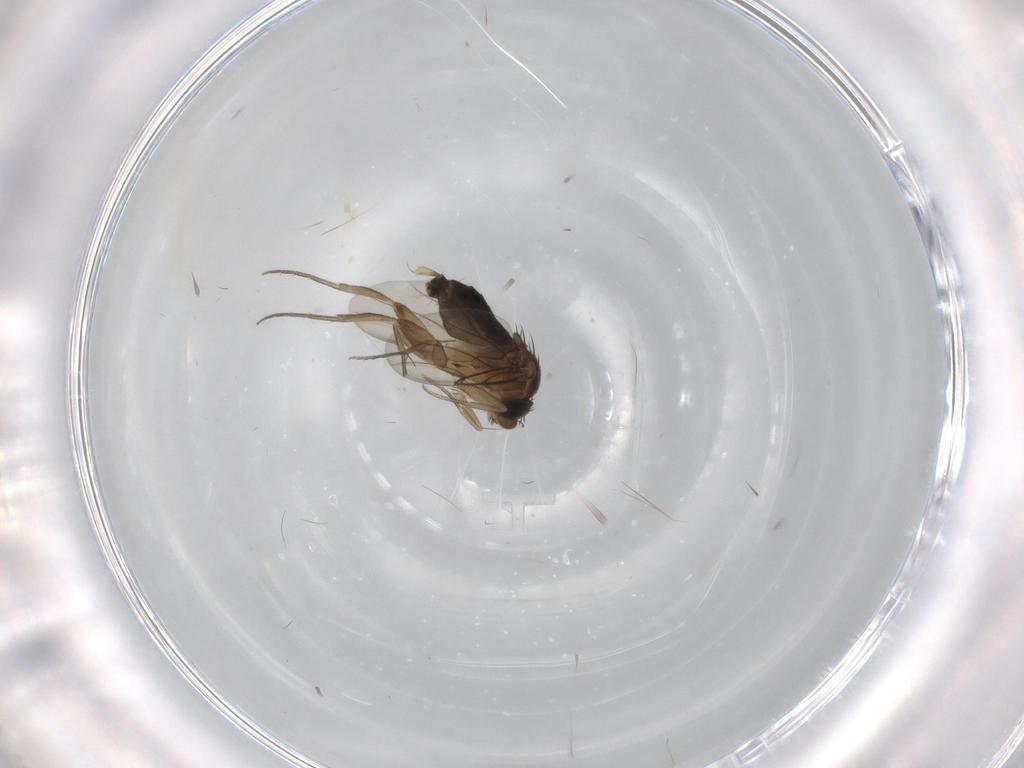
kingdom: Animalia
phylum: Arthropoda
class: Insecta
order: Diptera
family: Phoridae
